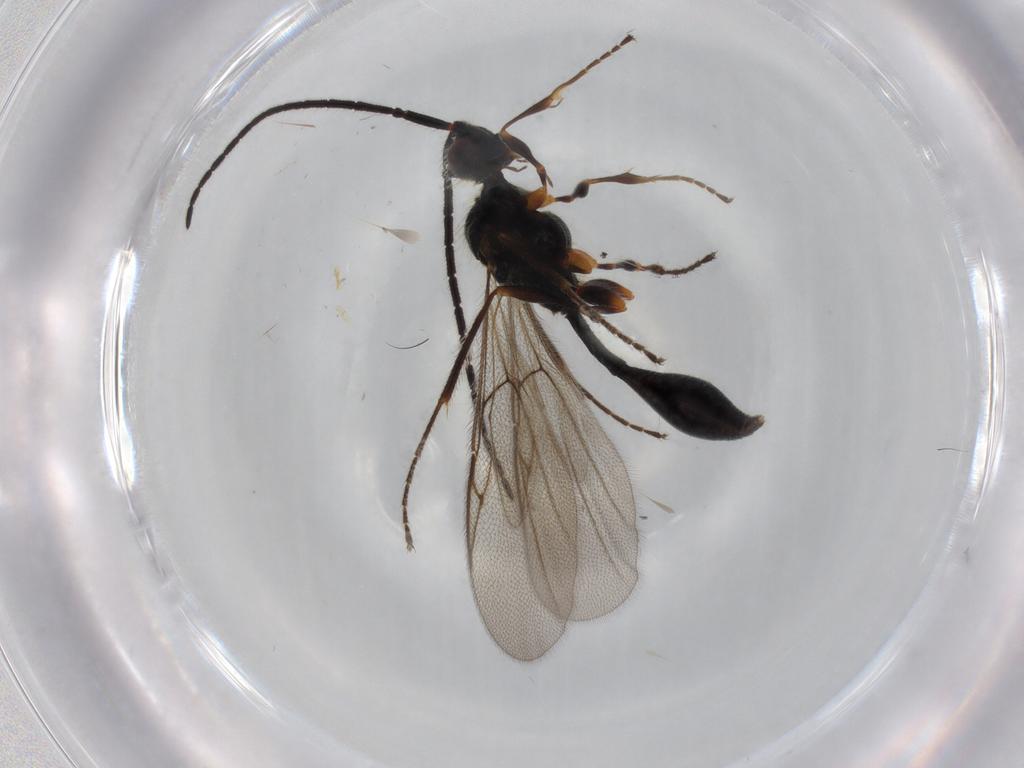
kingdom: Animalia
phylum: Arthropoda
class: Insecta
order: Hymenoptera
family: Diapriidae
